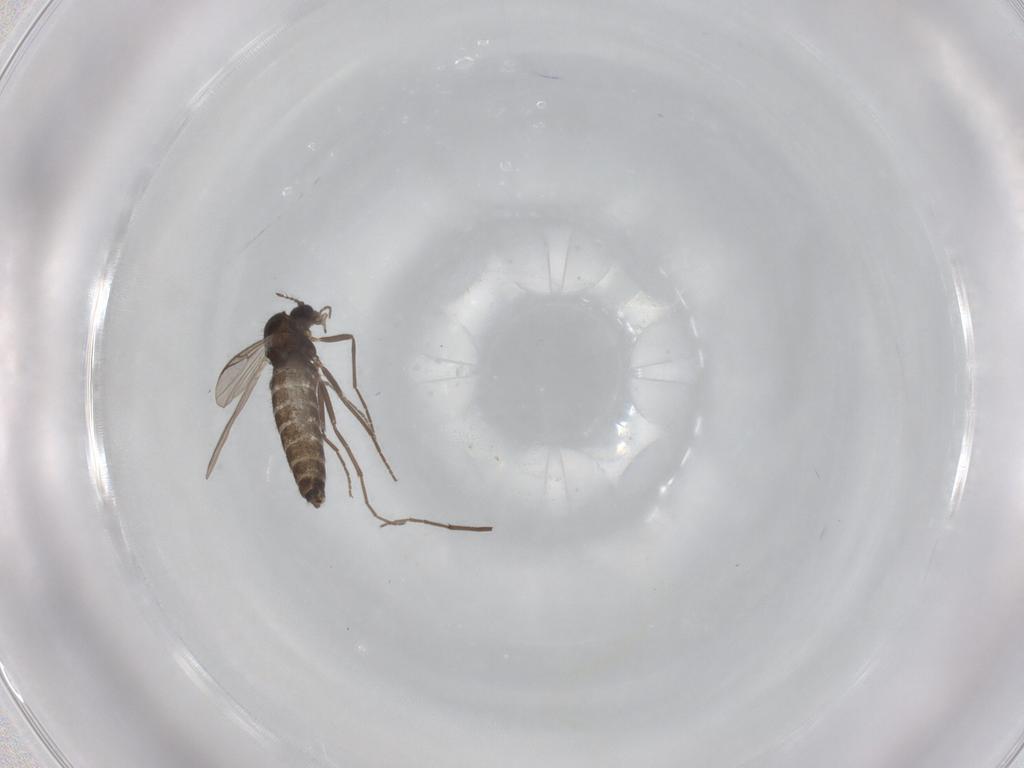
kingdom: Animalia
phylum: Arthropoda
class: Insecta
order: Diptera
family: Chironomidae
